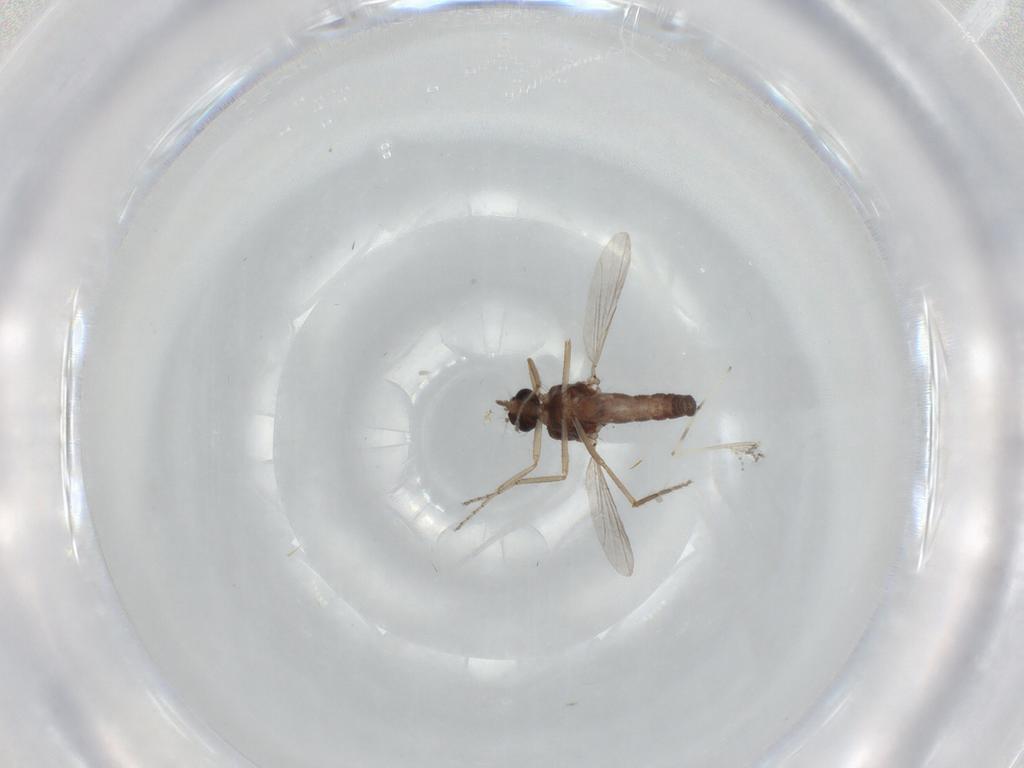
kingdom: Animalia
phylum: Arthropoda
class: Insecta
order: Diptera
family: Ceratopogonidae
